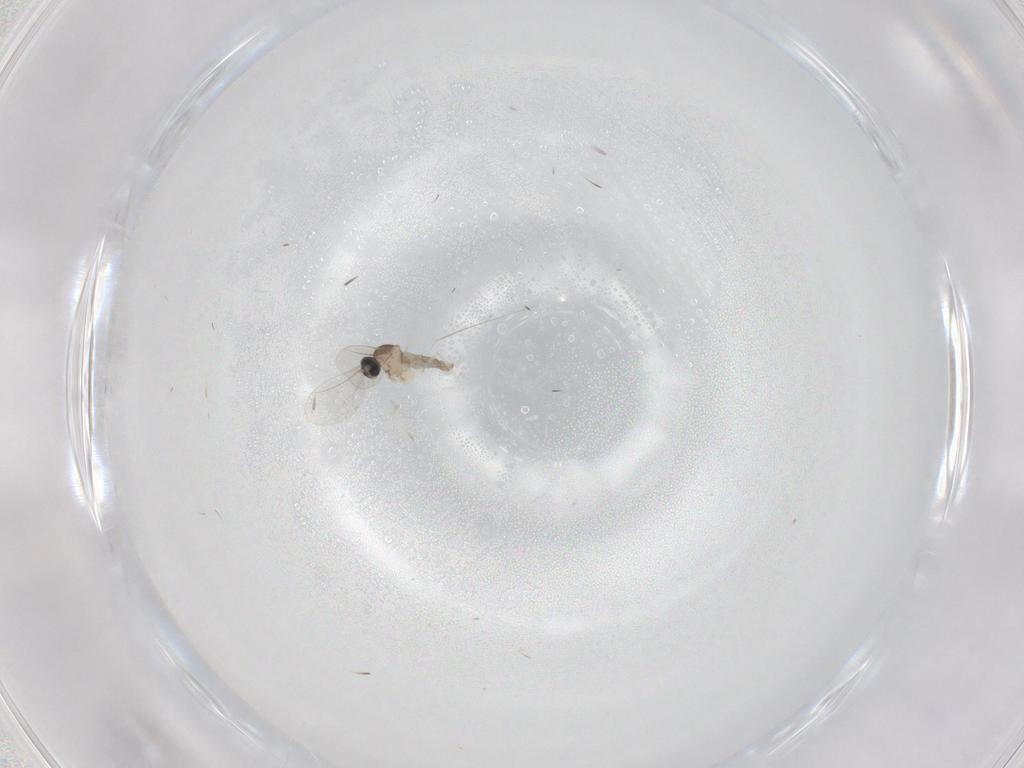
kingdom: Animalia
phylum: Arthropoda
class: Insecta
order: Diptera
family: Cecidomyiidae
